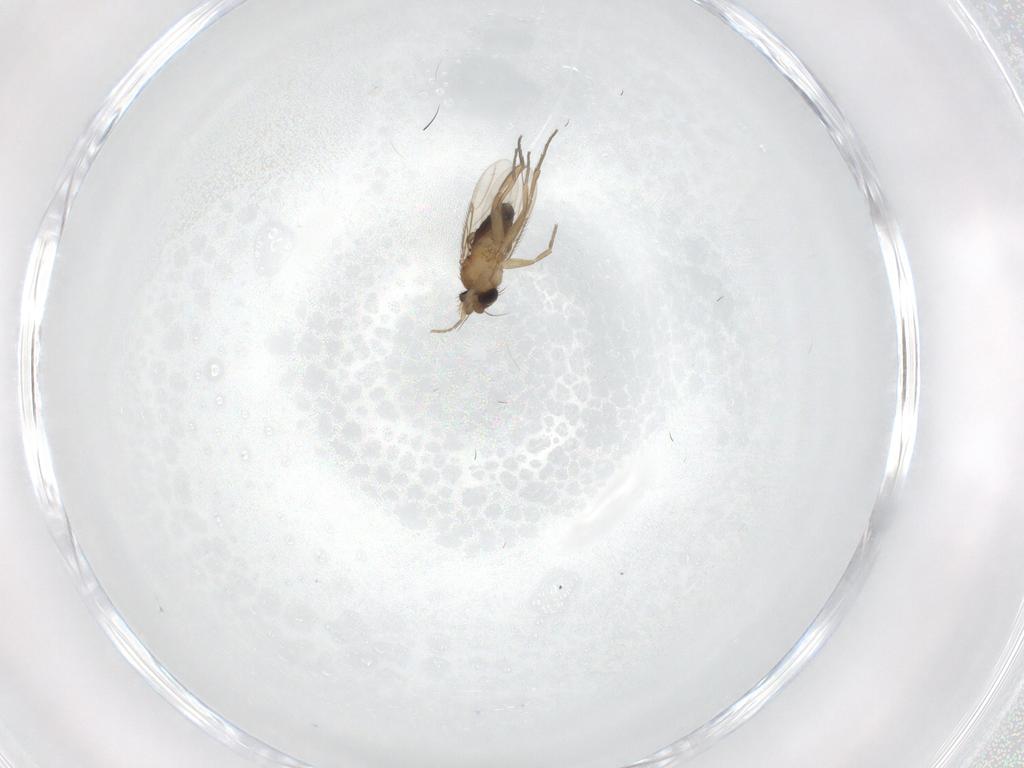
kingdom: Animalia
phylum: Arthropoda
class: Insecta
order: Diptera
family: Phoridae
